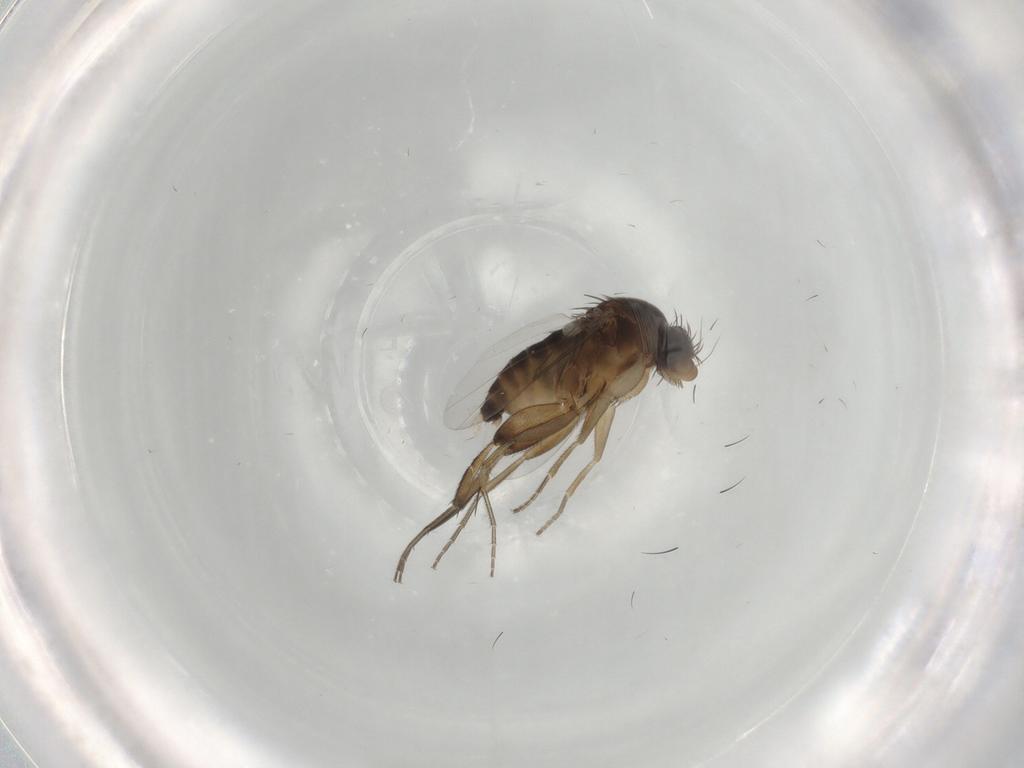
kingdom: Animalia
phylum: Arthropoda
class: Insecta
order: Diptera
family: Phoridae
